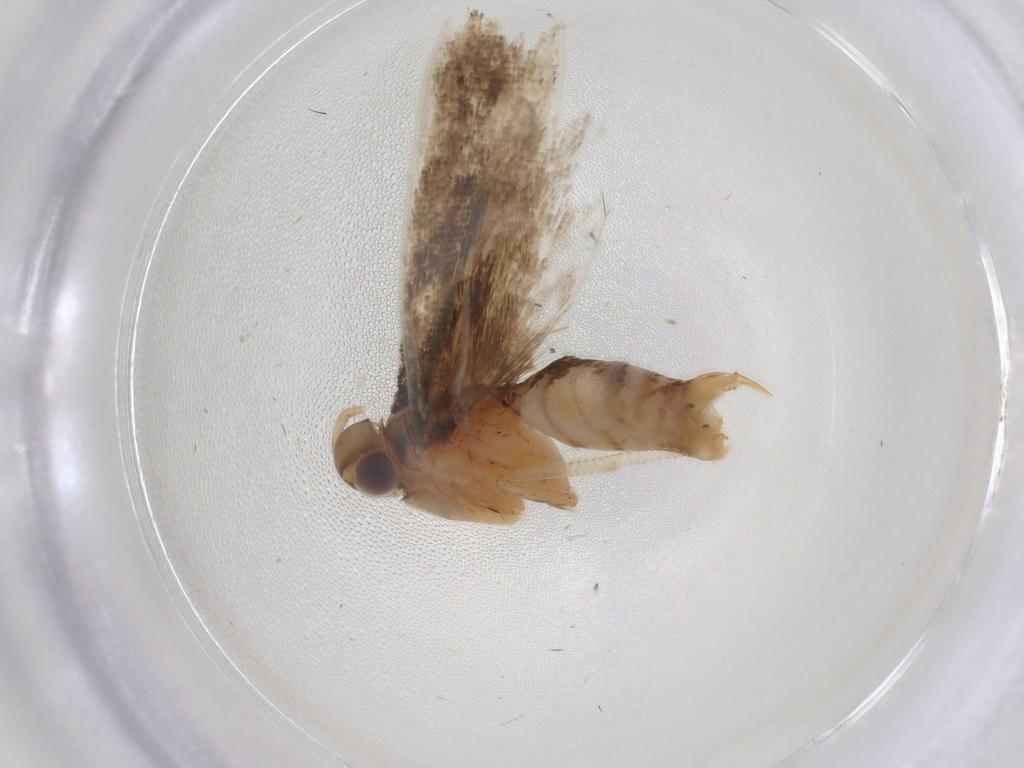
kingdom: Animalia
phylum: Arthropoda
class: Insecta
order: Lepidoptera
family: Gelechiidae
